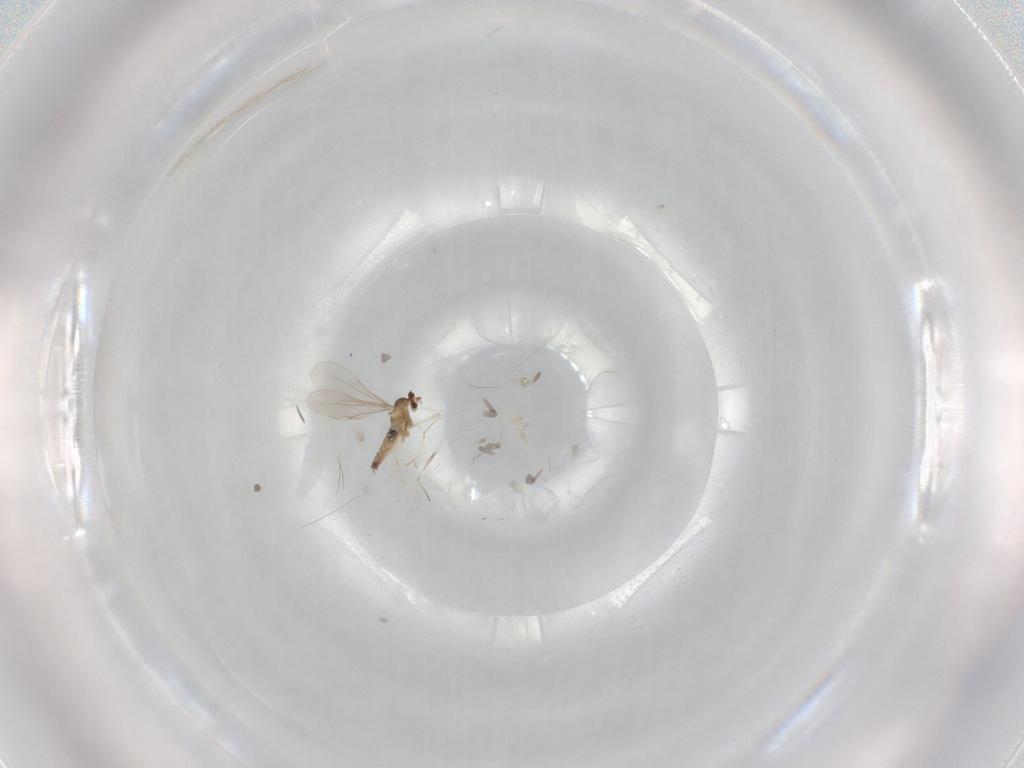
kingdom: Animalia
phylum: Arthropoda
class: Insecta
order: Diptera
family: Cecidomyiidae
